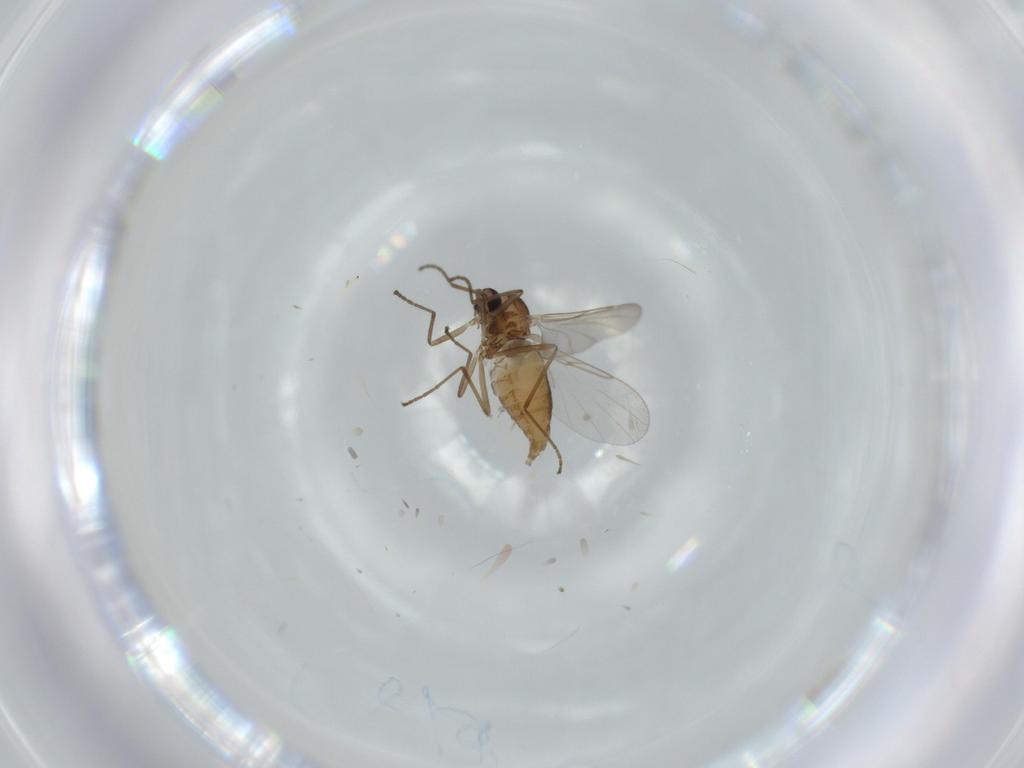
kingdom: Animalia
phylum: Arthropoda
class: Insecta
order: Diptera
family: Cecidomyiidae
